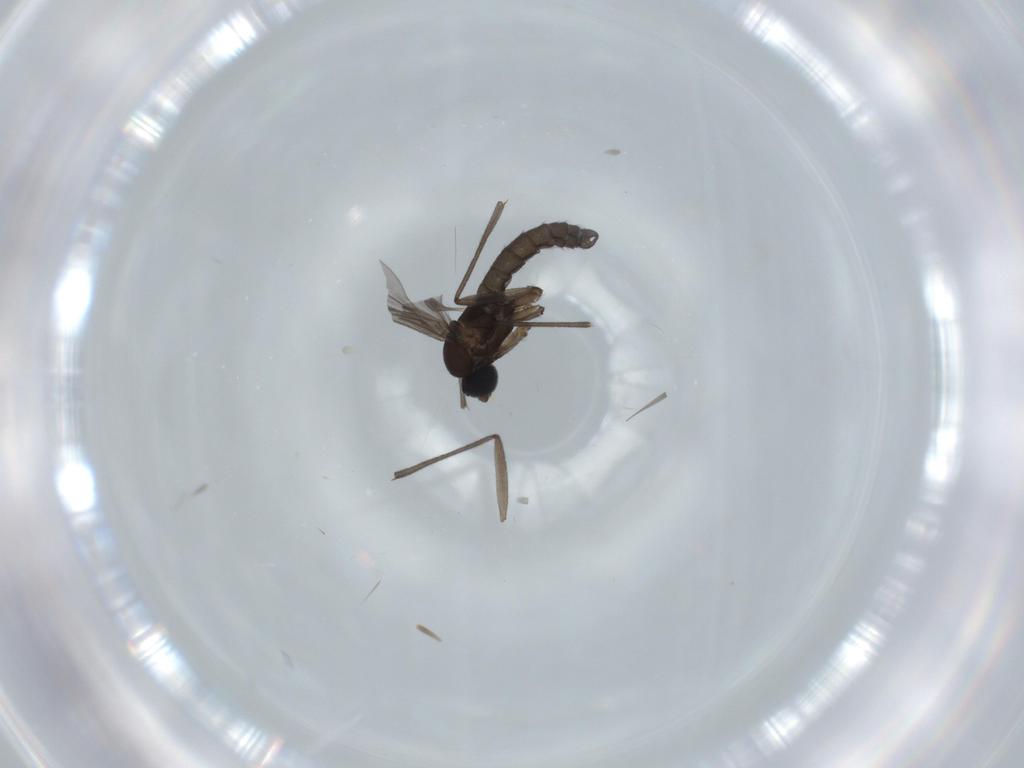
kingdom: Animalia
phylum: Arthropoda
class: Insecta
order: Diptera
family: Sciaridae
